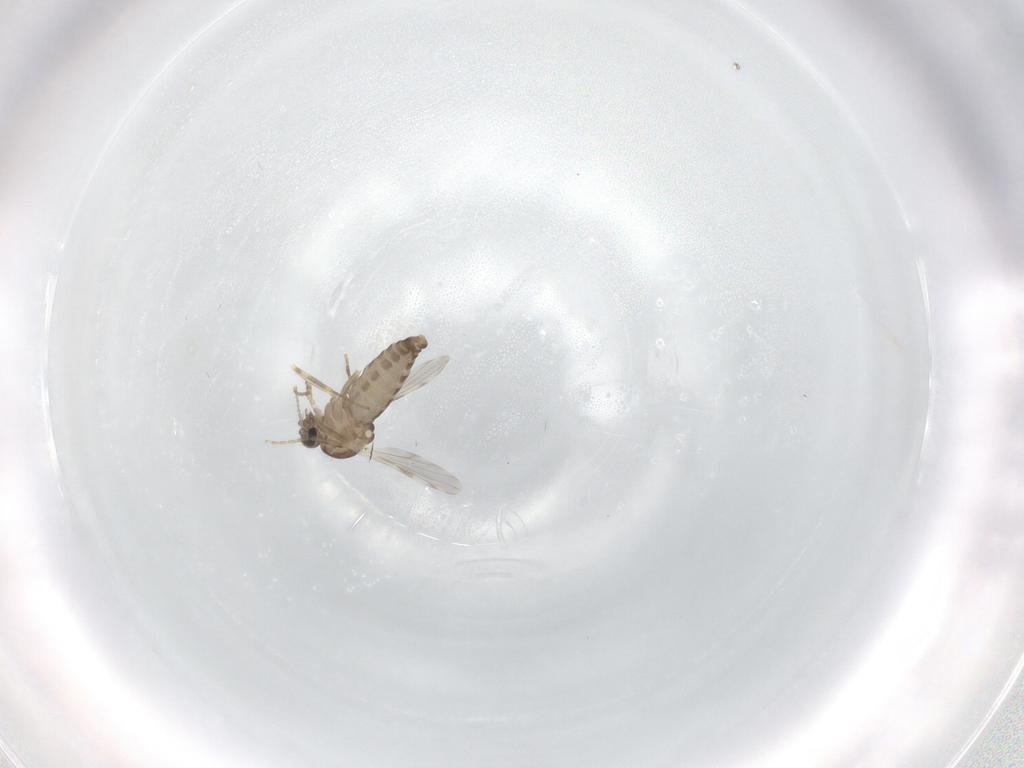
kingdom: Animalia
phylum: Arthropoda
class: Insecta
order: Diptera
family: Ceratopogonidae
